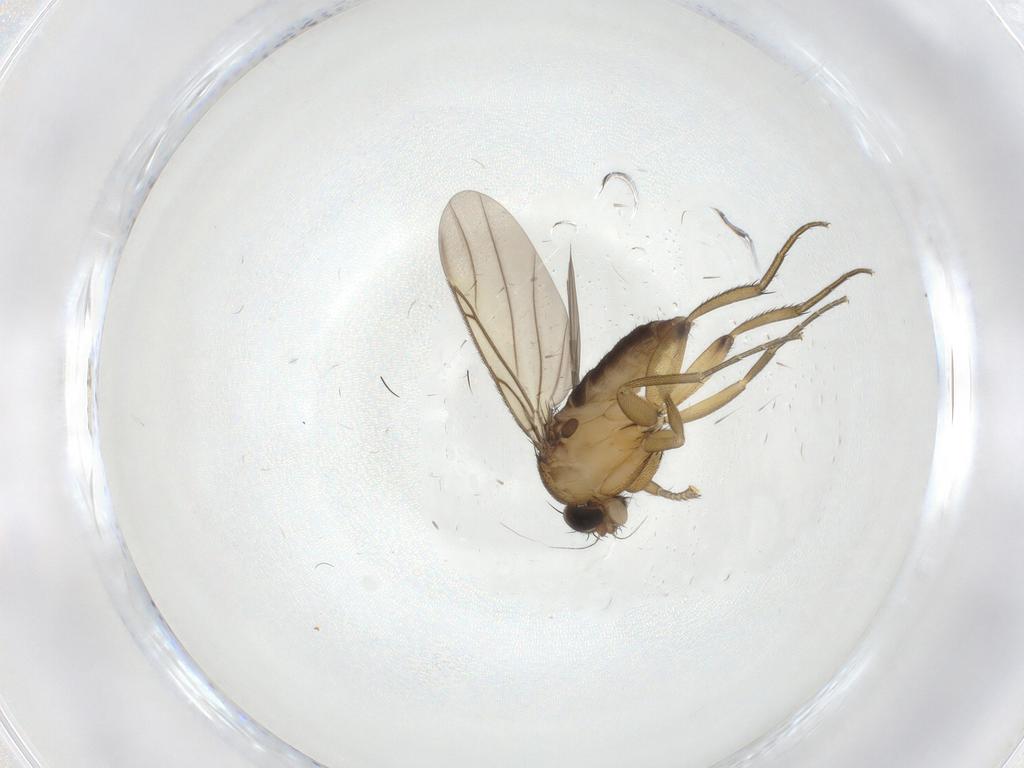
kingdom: Animalia
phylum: Arthropoda
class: Insecta
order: Diptera
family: Phoridae
